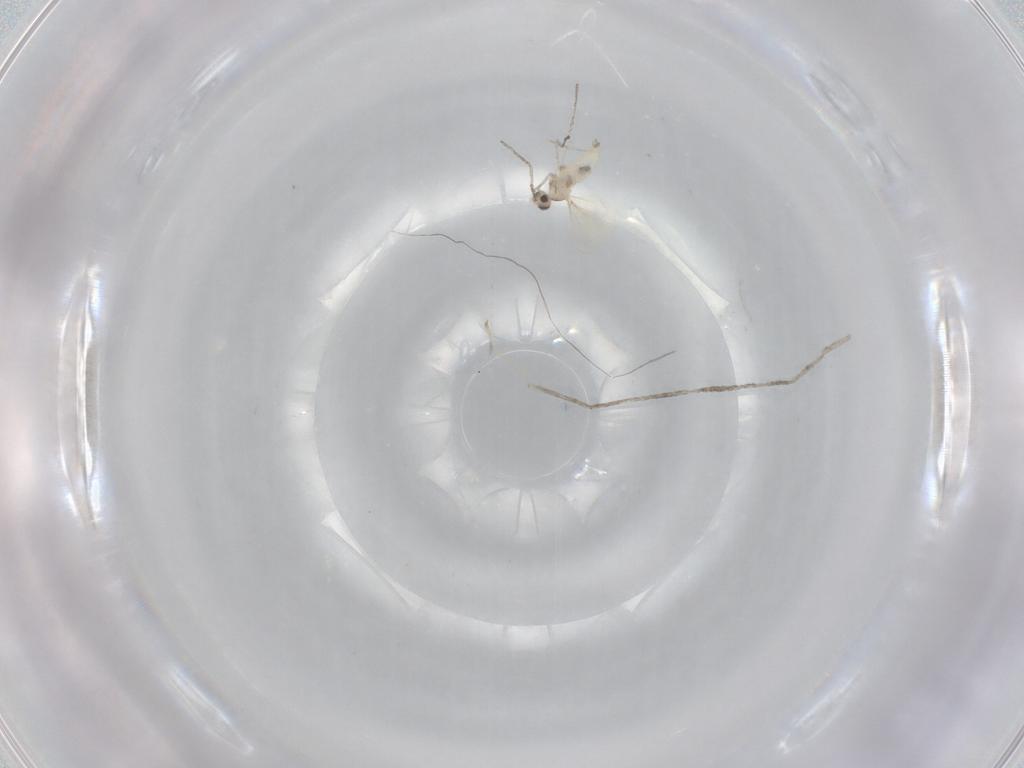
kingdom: Animalia
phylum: Arthropoda
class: Insecta
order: Diptera
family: Cecidomyiidae
